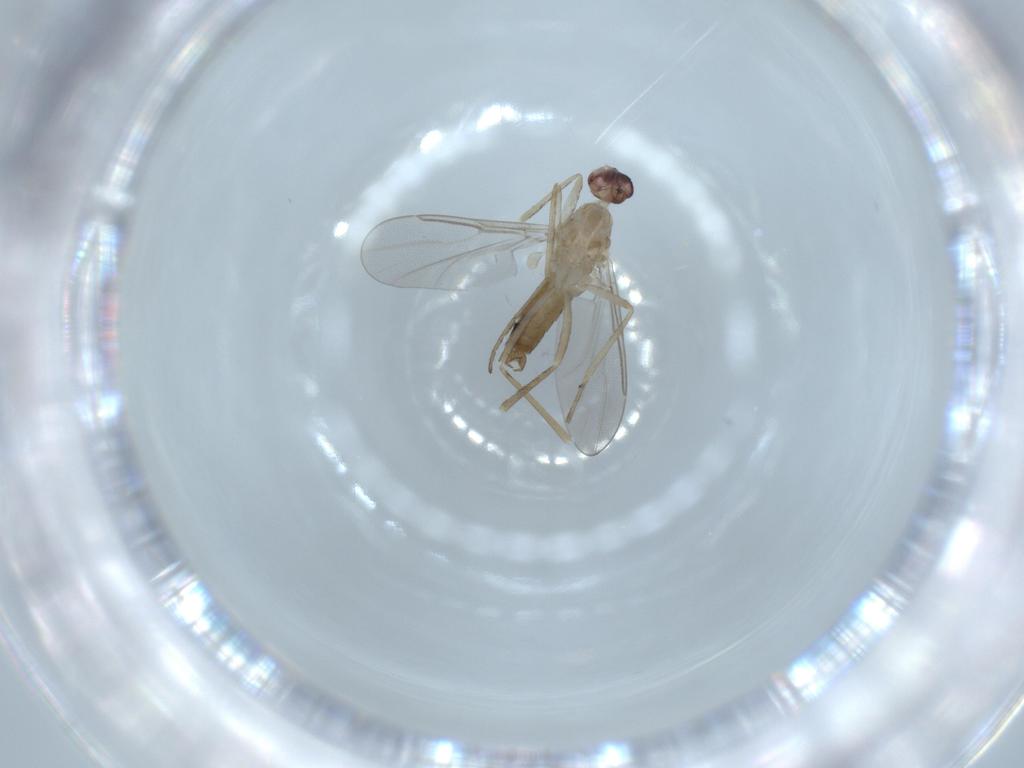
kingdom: Animalia
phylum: Arthropoda
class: Insecta
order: Diptera
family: Cecidomyiidae
